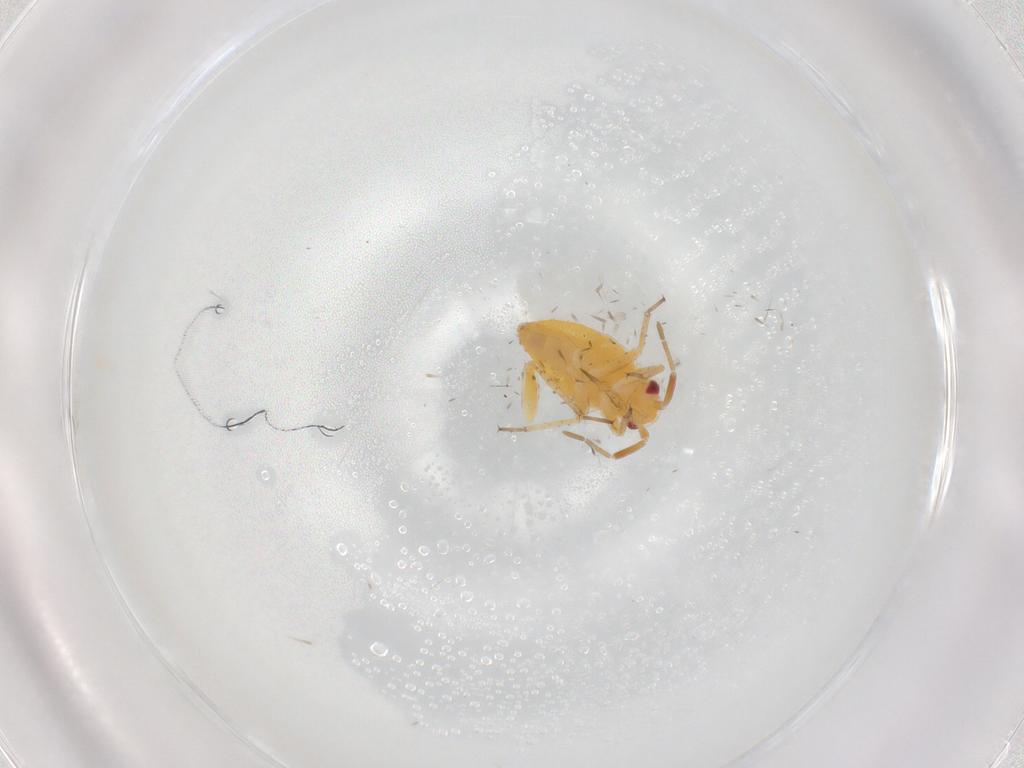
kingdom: Animalia
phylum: Arthropoda
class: Insecta
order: Hemiptera
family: Miridae
